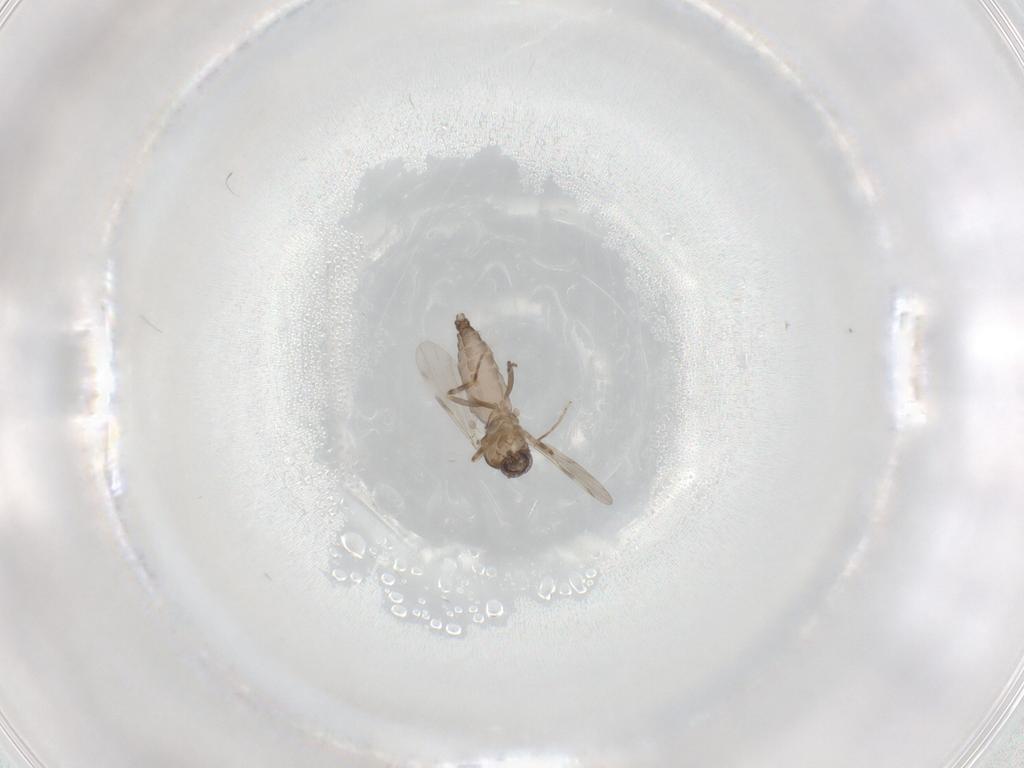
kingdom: Animalia
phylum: Arthropoda
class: Insecta
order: Diptera
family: Ceratopogonidae
